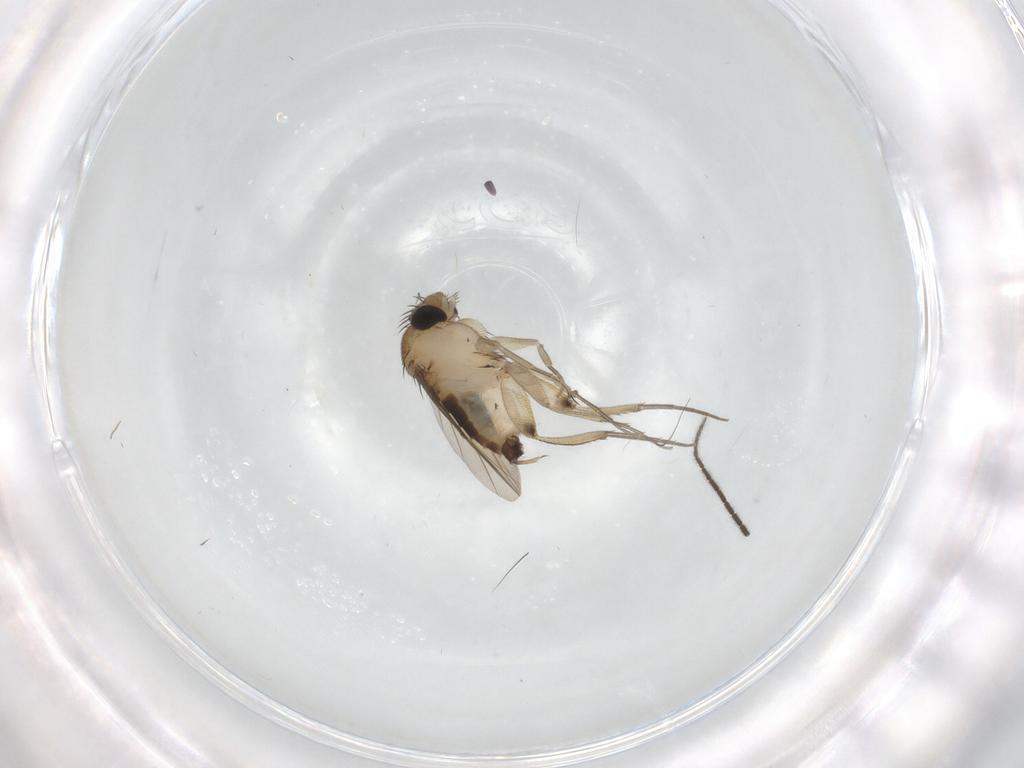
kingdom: Animalia
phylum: Arthropoda
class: Insecta
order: Diptera
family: Phoridae
